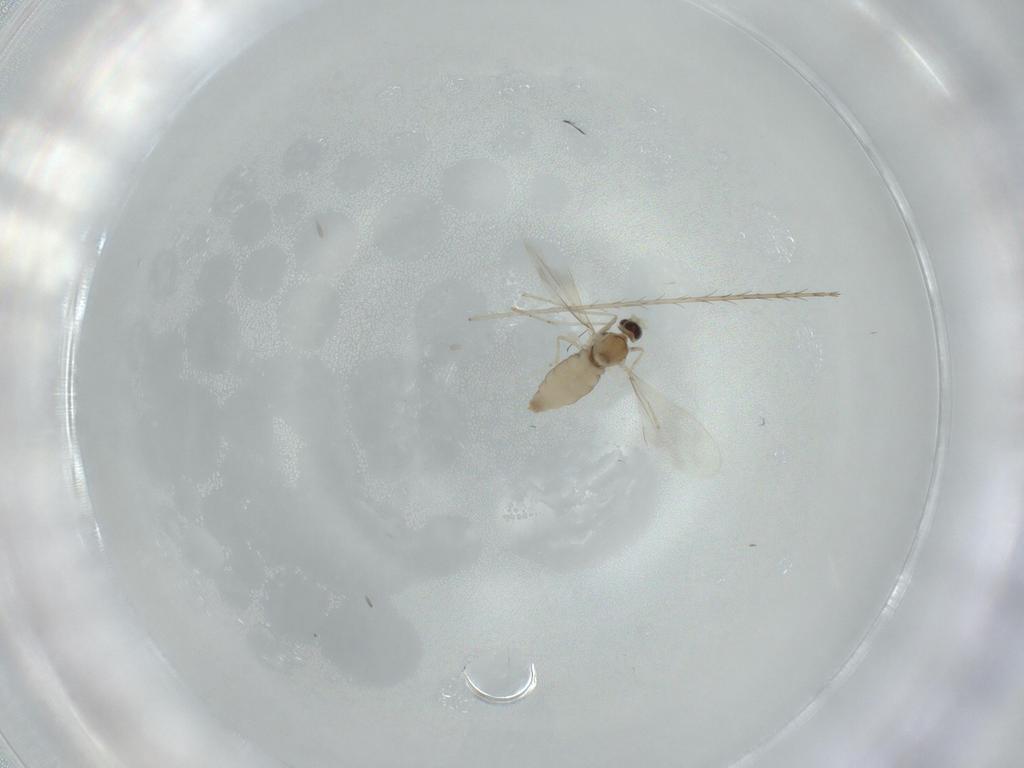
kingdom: Animalia
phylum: Arthropoda
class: Insecta
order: Diptera
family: Cecidomyiidae
